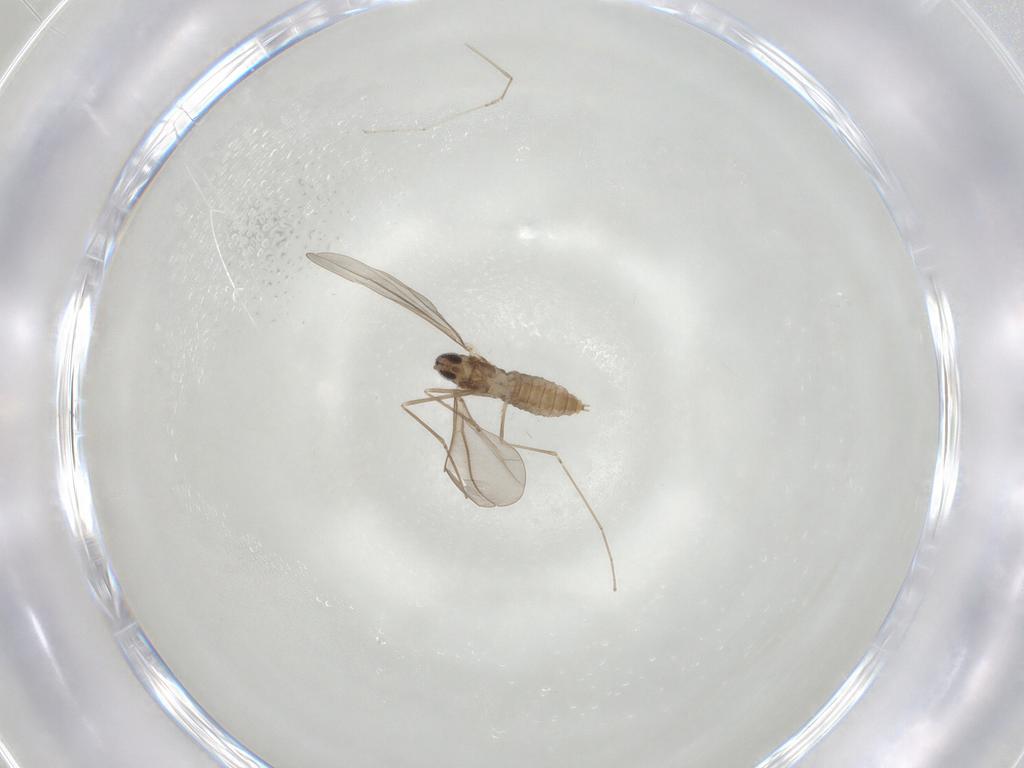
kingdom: Animalia
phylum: Arthropoda
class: Insecta
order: Diptera
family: Cecidomyiidae
